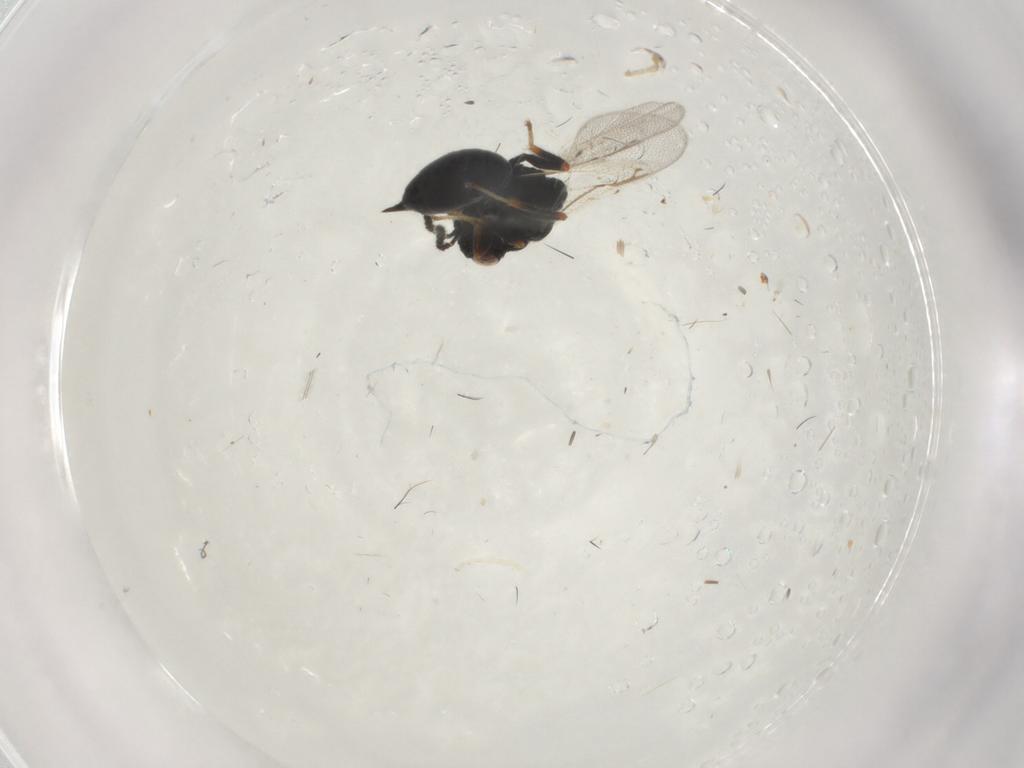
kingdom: Animalia
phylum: Arthropoda
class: Insecta
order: Hymenoptera
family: Eurytomidae
